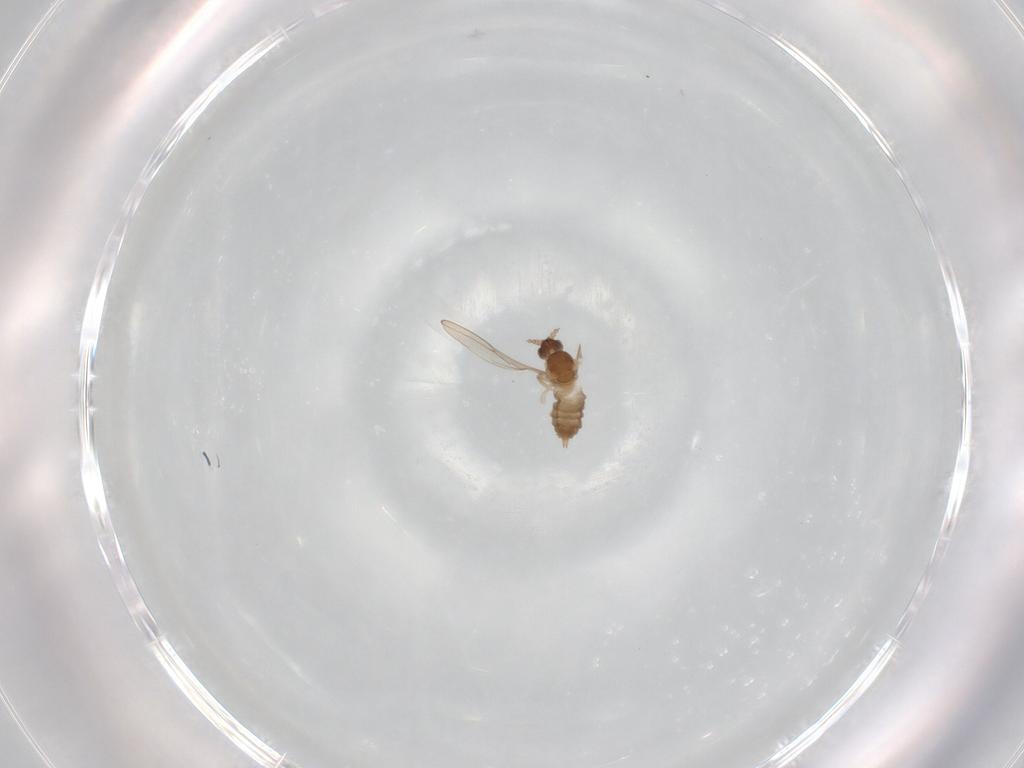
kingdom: Animalia
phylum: Arthropoda
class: Insecta
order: Diptera
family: Cecidomyiidae
